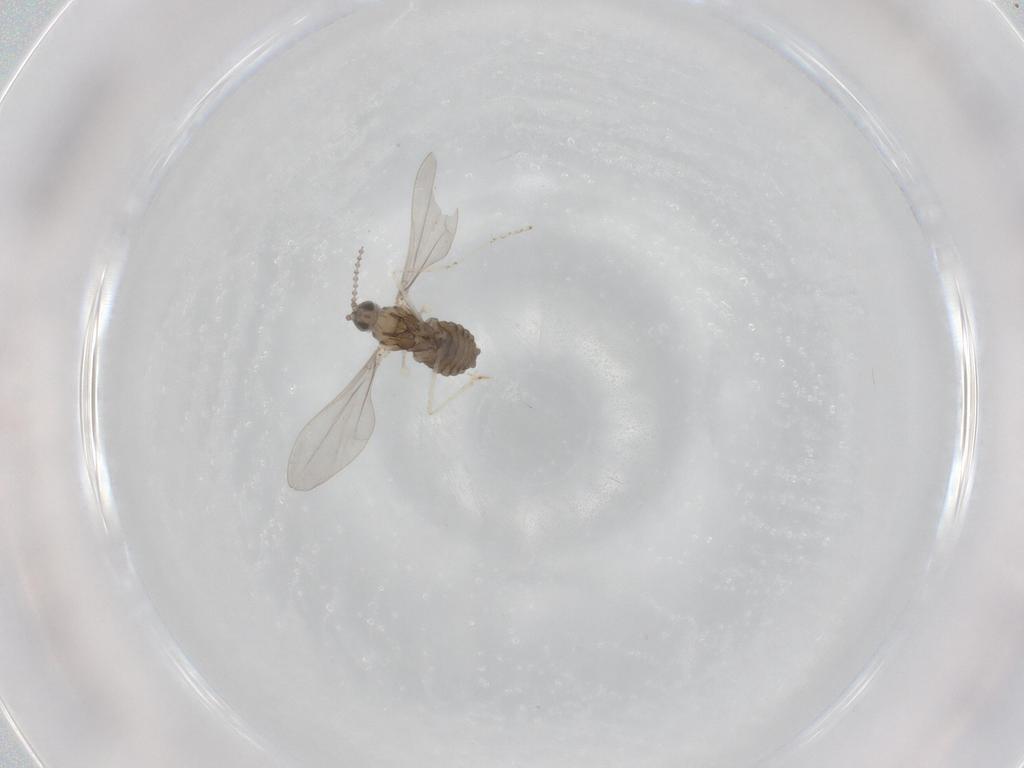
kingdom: Animalia
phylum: Arthropoda
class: Insecta
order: Diptera
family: Cecidomyiidae
